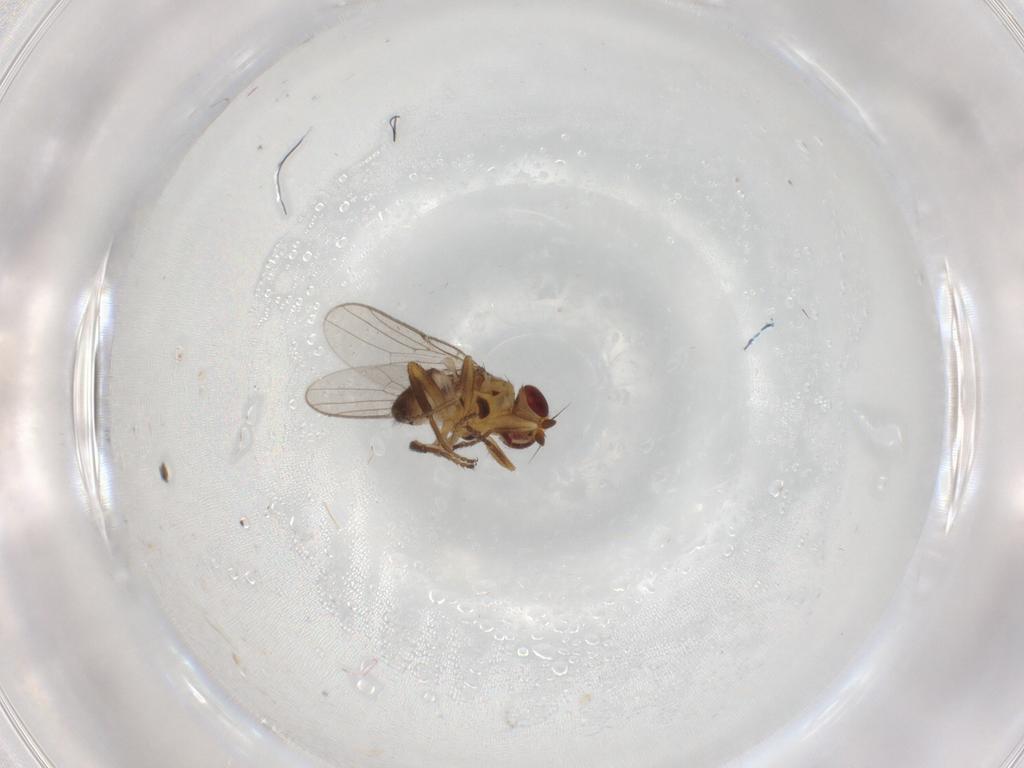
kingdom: Animalia
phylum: Arthropoda
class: Insecta
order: Diptera
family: Chloropidae
